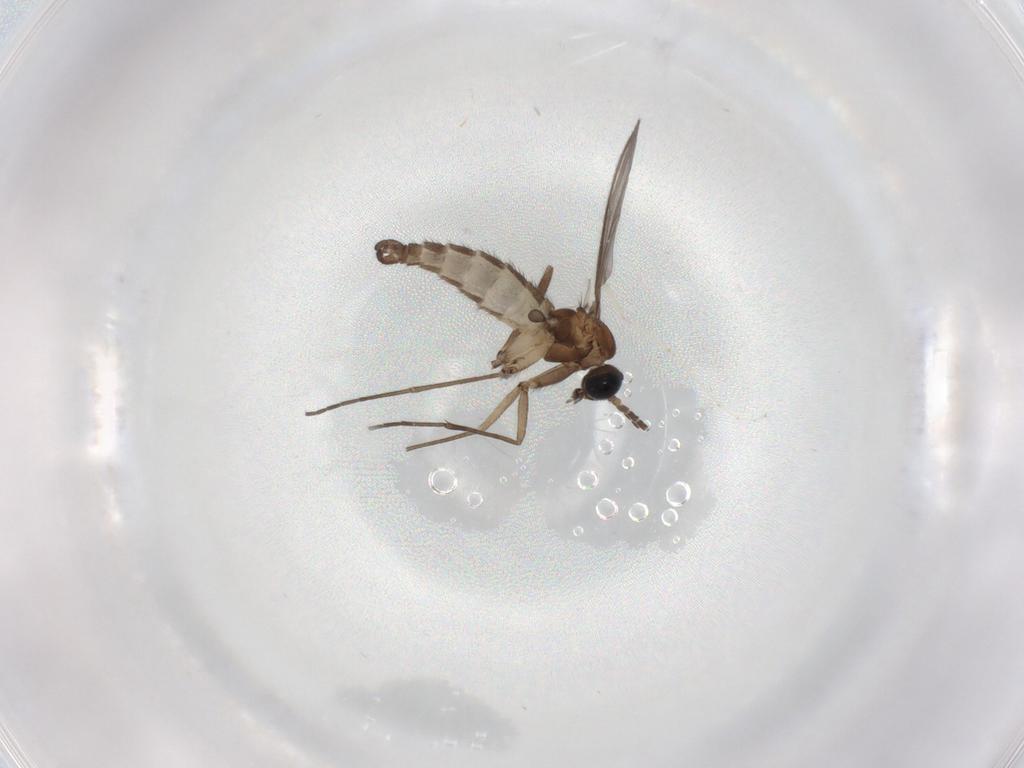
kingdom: Animalia
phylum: Arthropoda
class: Insecta
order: Diptera
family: Sciaridae
